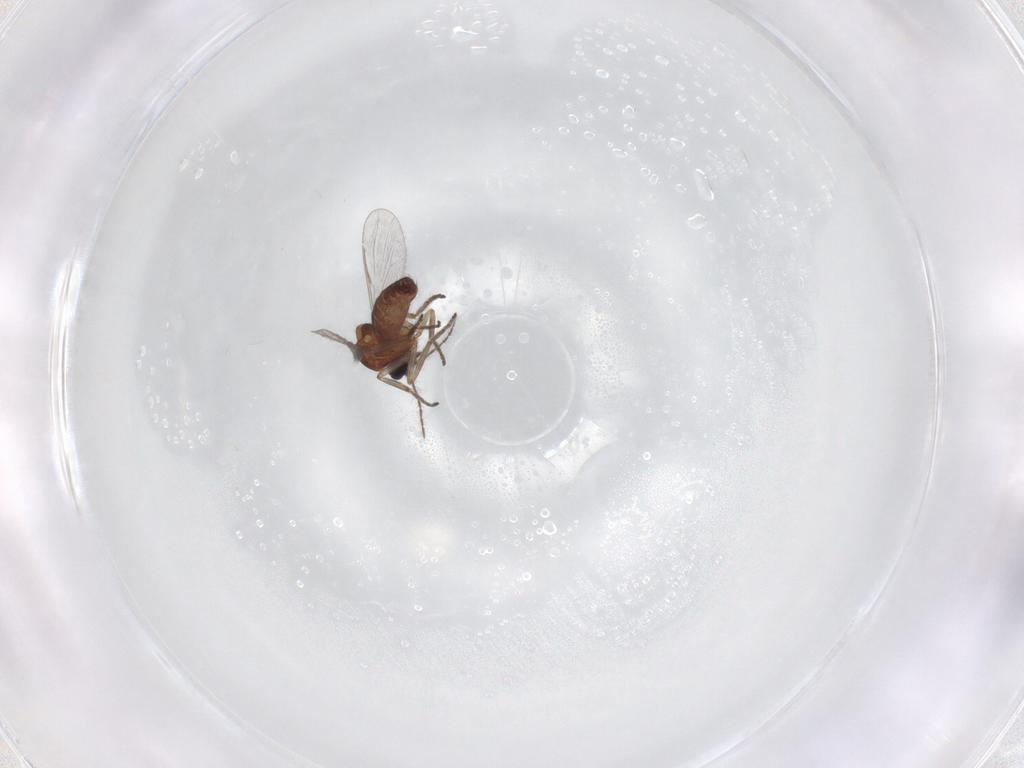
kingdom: Animalia
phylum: Arthropoda
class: Insecta
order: Diptera
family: Ceratopogonidae
